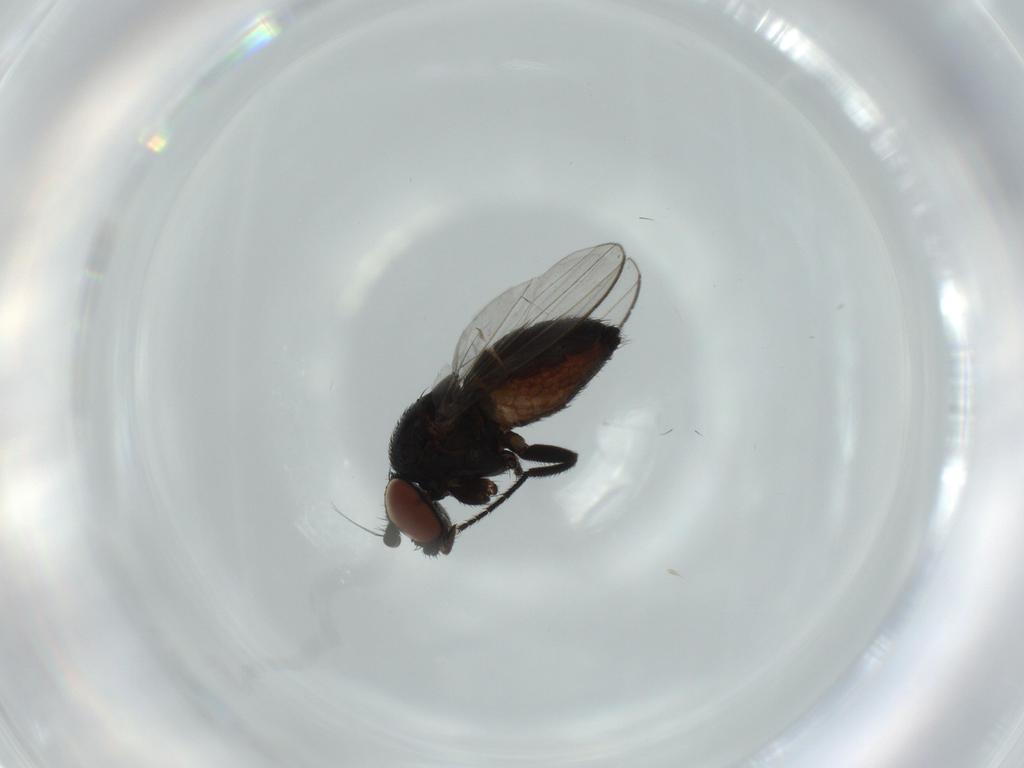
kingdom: Animalia
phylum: Arthropoda
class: Insecta
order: Diptera
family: Milichiidae
